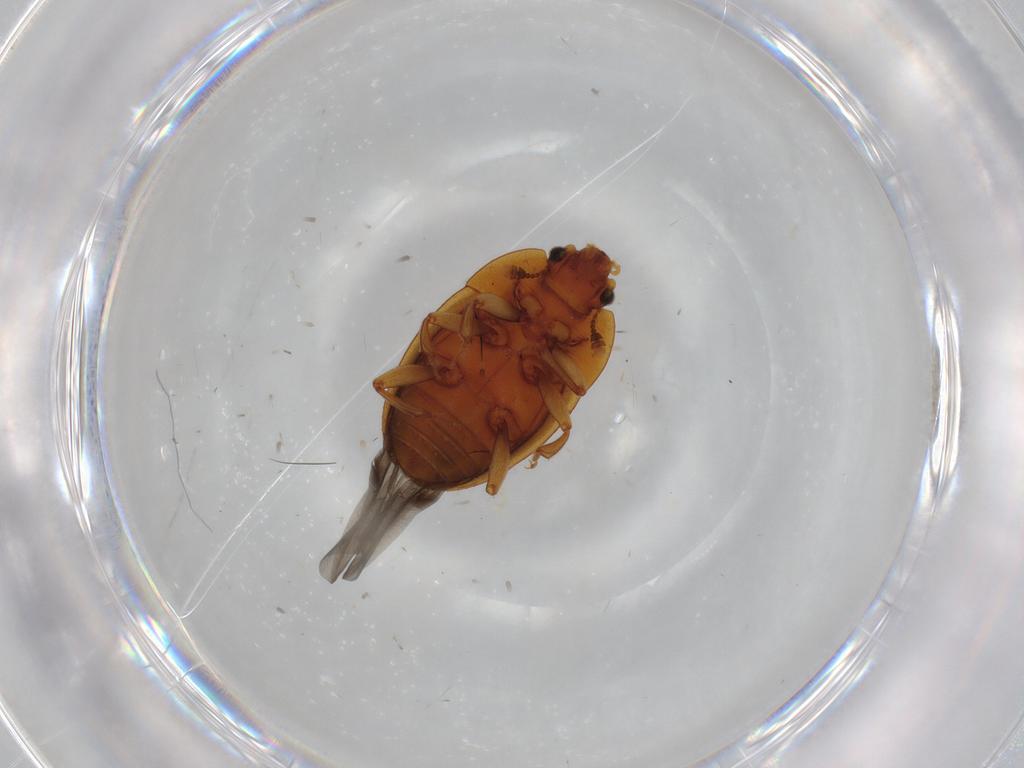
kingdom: Animalia
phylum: Arthropoda
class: Insecta
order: Coleoptera
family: Nitidulidae
